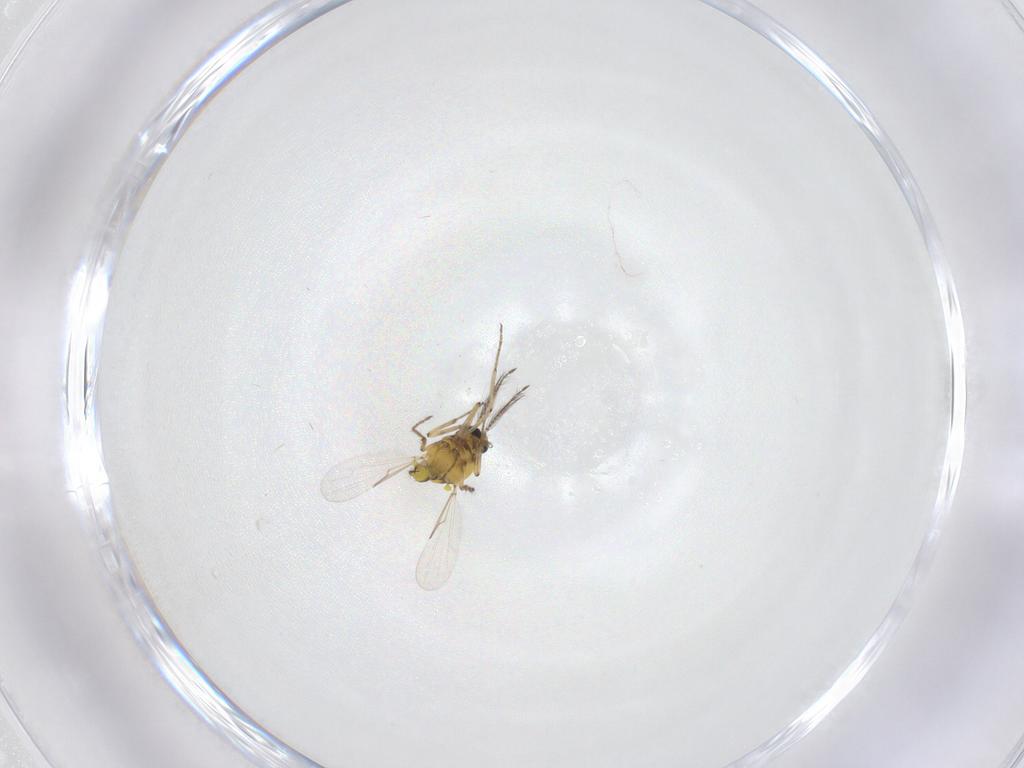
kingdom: Animalia
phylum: Arthropoda
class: Insecta
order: Diptera
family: Ceratopogonidae
